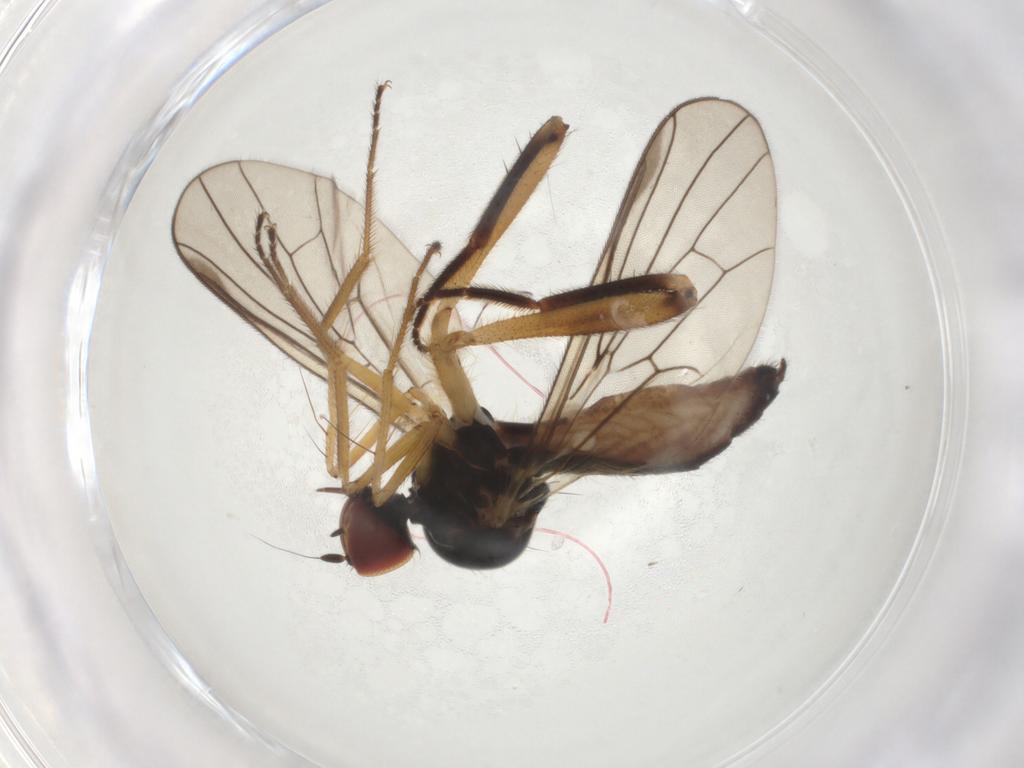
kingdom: Animalia
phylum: Arthropoda
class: Insecta
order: Diptera
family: Hybotidae
